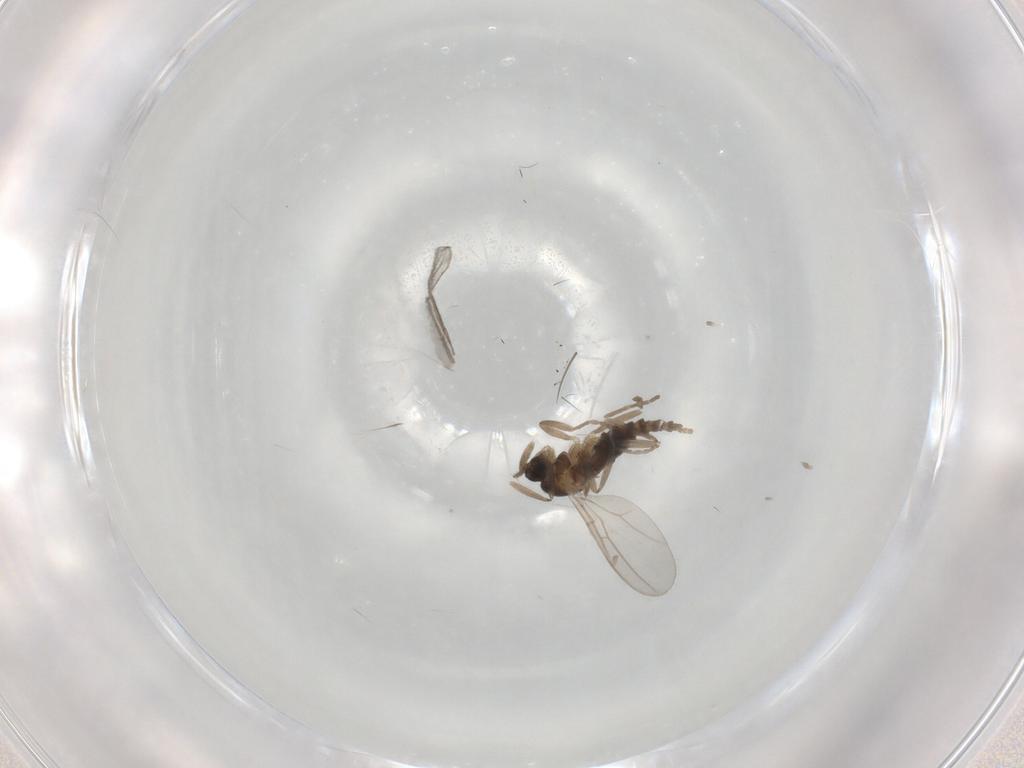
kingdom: Animalia
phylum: Arthropoda
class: Insecta
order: Diptera
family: Cecidomyiidae
